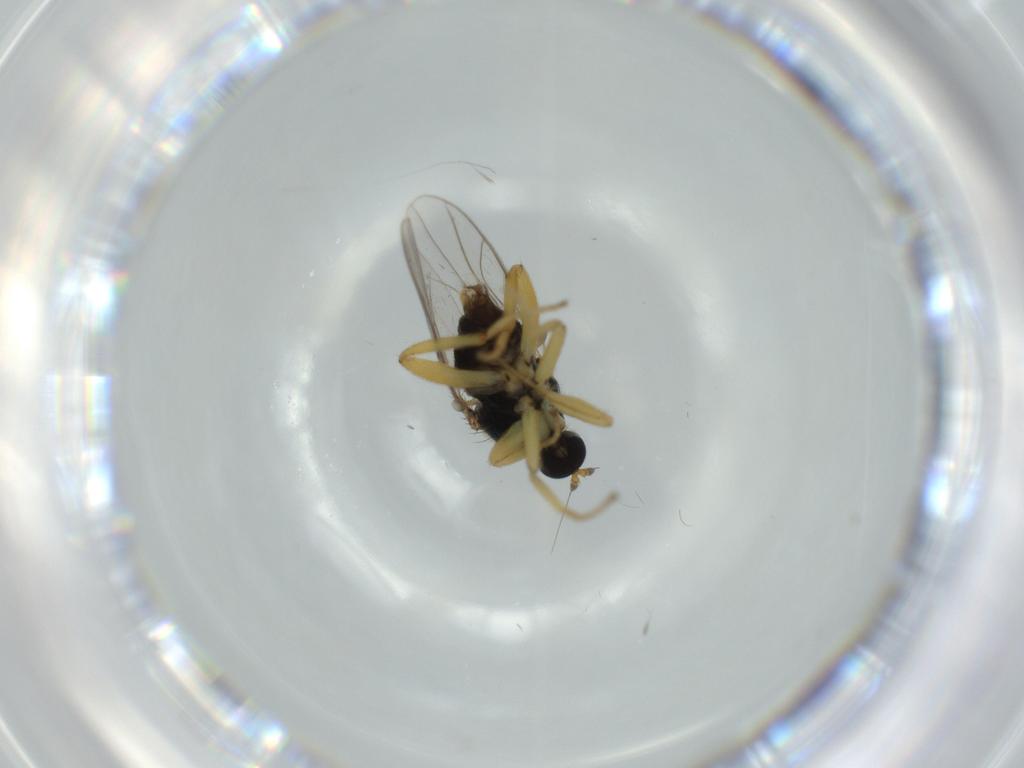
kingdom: Animalia
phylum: Arthropoda
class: Insecta
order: Diptera
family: Hybotidae
